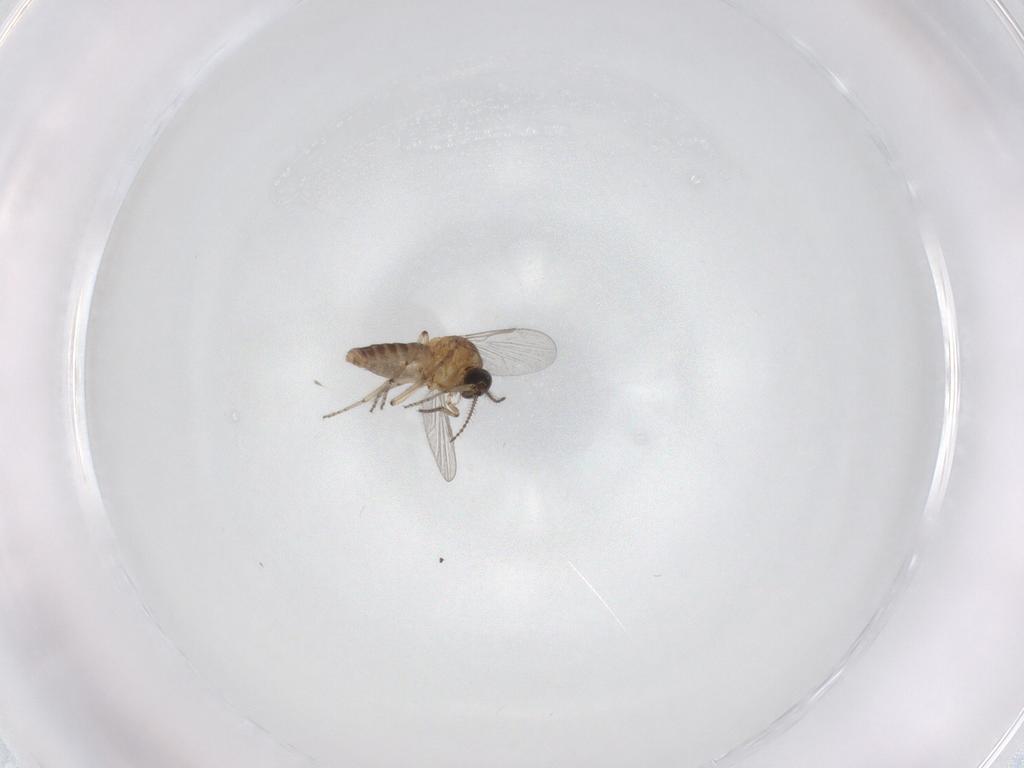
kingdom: Animalia
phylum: Arthropoda
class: Insecta
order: Diptera
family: Ceratopogonidae
